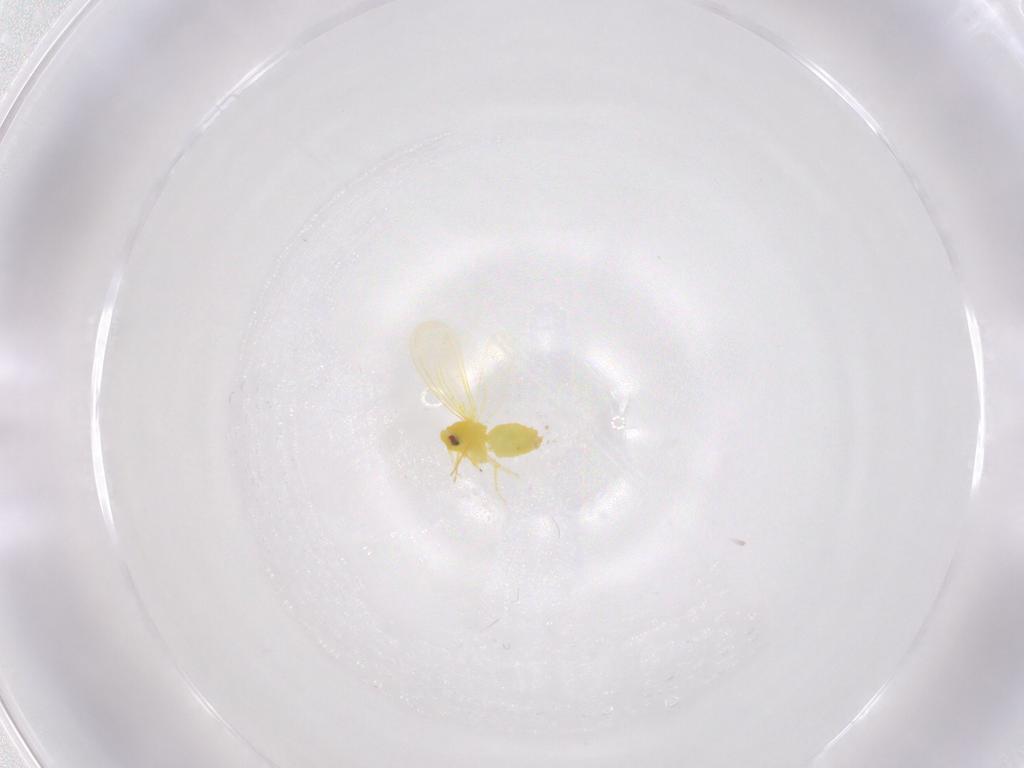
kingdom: Animalia
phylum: Arthropoda
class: Insecta
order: Hemiptera
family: Aleyrodidae
